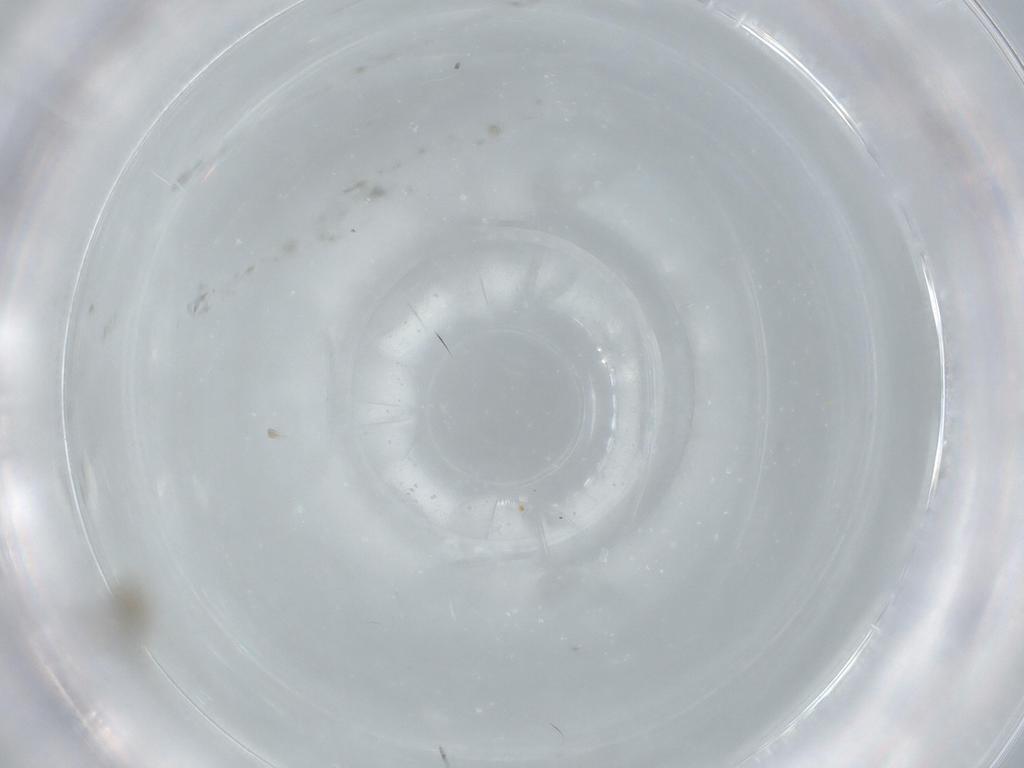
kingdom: Animalia
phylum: Arthropoda
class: Insecta
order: Diptera
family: Cecidomyiidae
